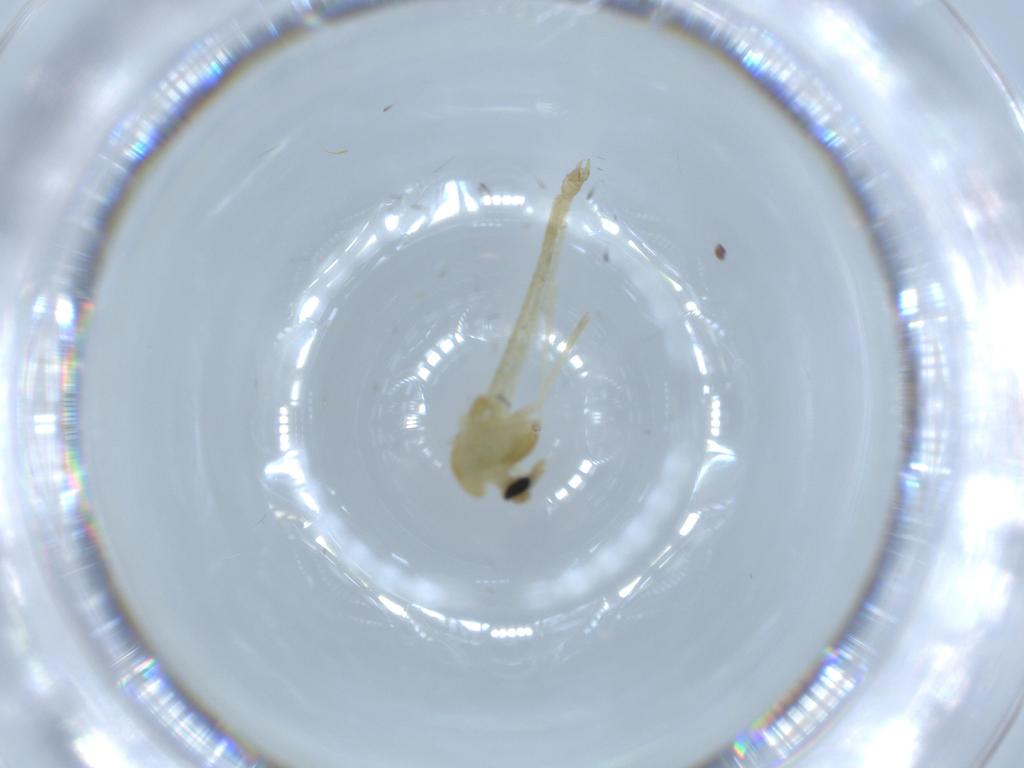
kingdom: Animalia
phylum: Arthropoda
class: Insecta
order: Diptera
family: Chironomidae
